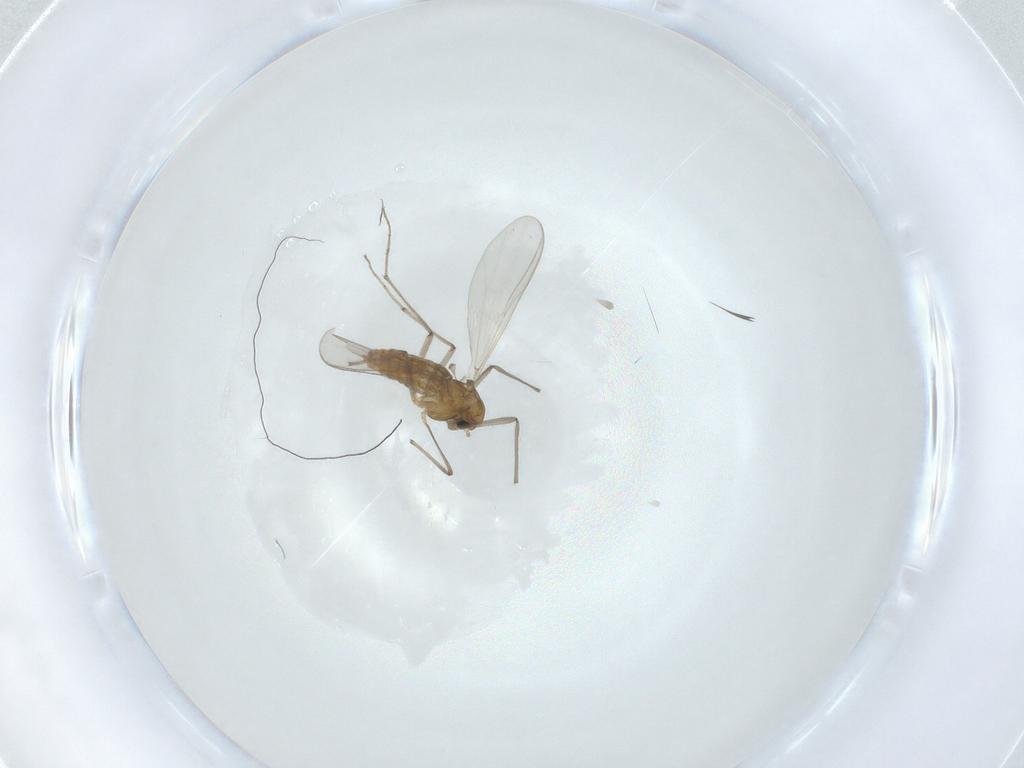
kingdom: Animalia
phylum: Arthropoda
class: Insecta
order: Diptera
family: Chironomidae
